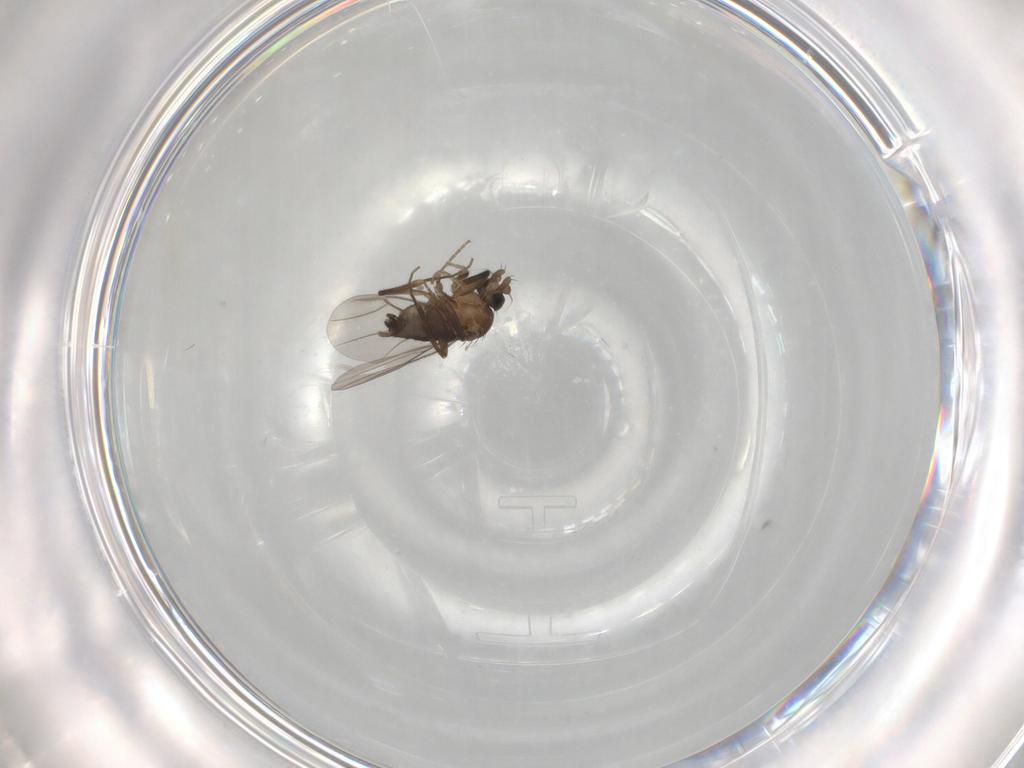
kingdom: Animalia
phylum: Arthropoda
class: Insecta
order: Diptera
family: Phoridae
